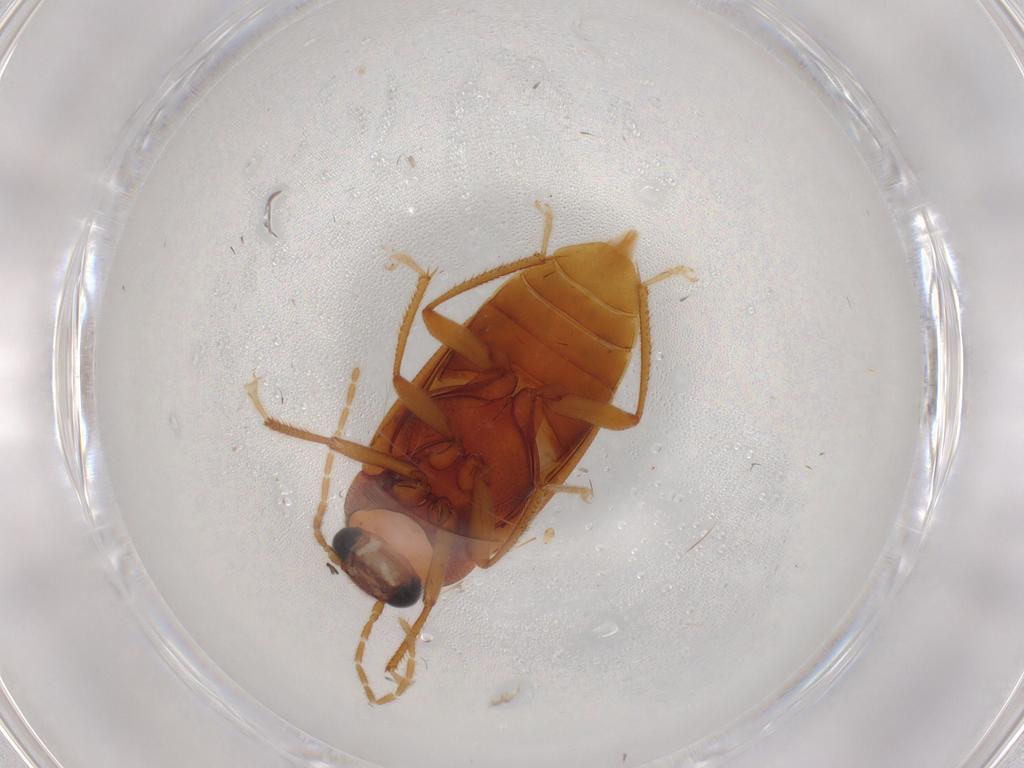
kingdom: Animalia
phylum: Arthropoda
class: Insecta
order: Coleoptera
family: Ptilodactylidae
